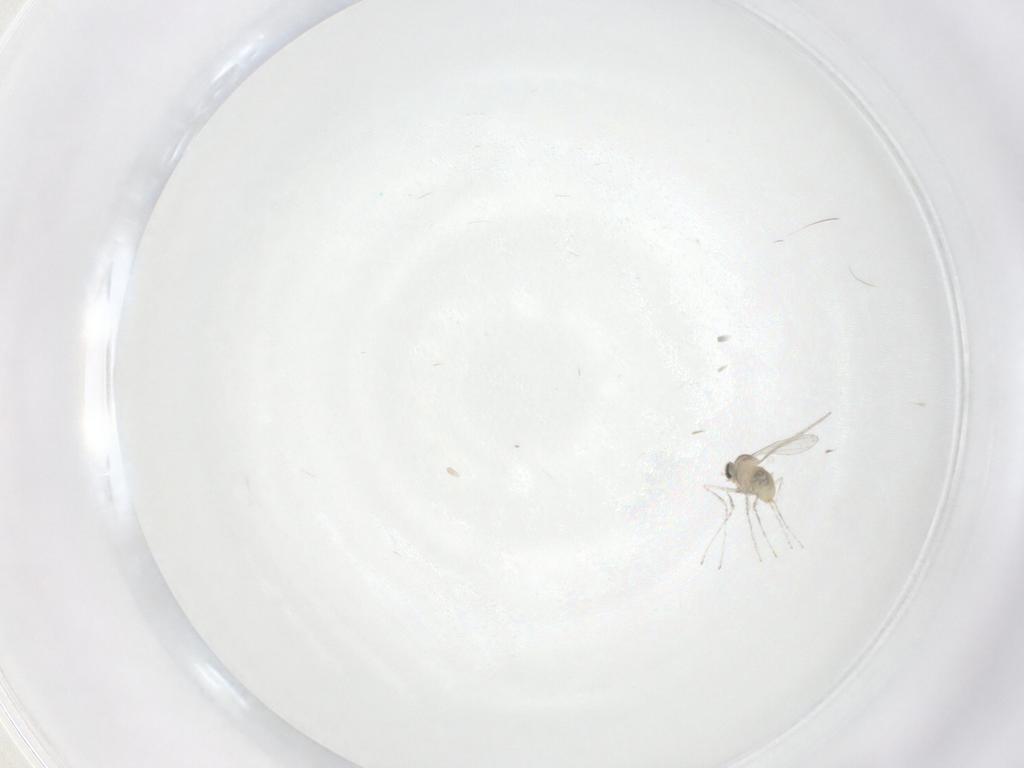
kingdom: Animalia
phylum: Arthropoda
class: Insecta
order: Diptera
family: Cecidomyiidae
